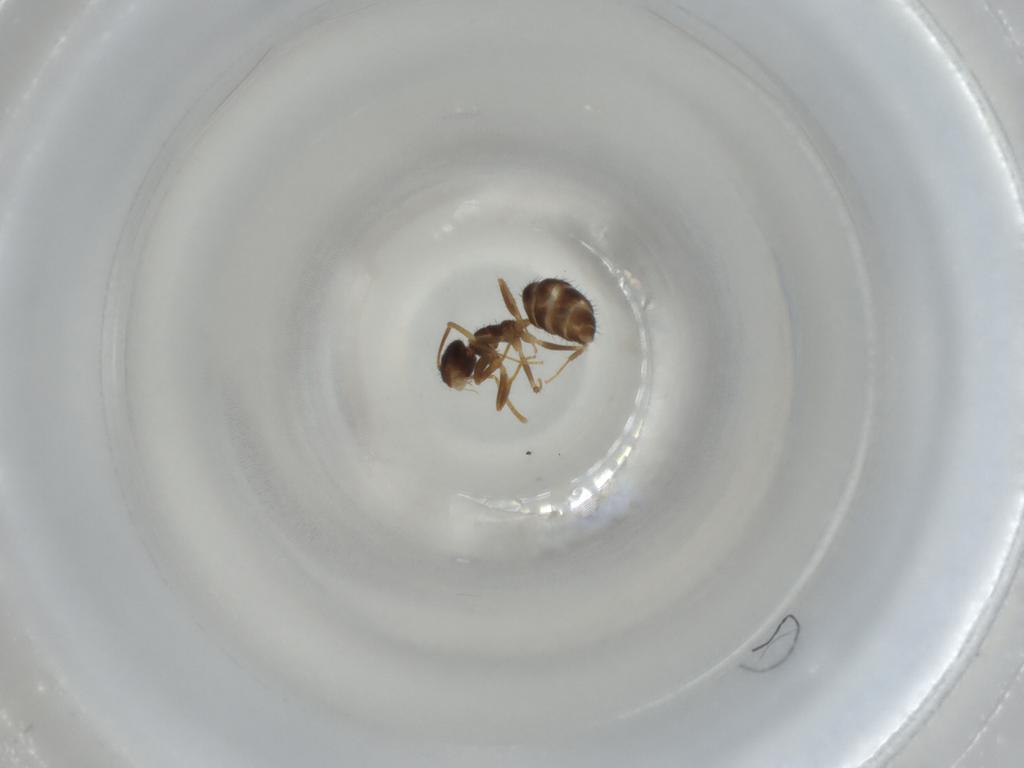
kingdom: Animalia
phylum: Arthropoda
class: Insecta
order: Hymenoptera
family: Formicidae
